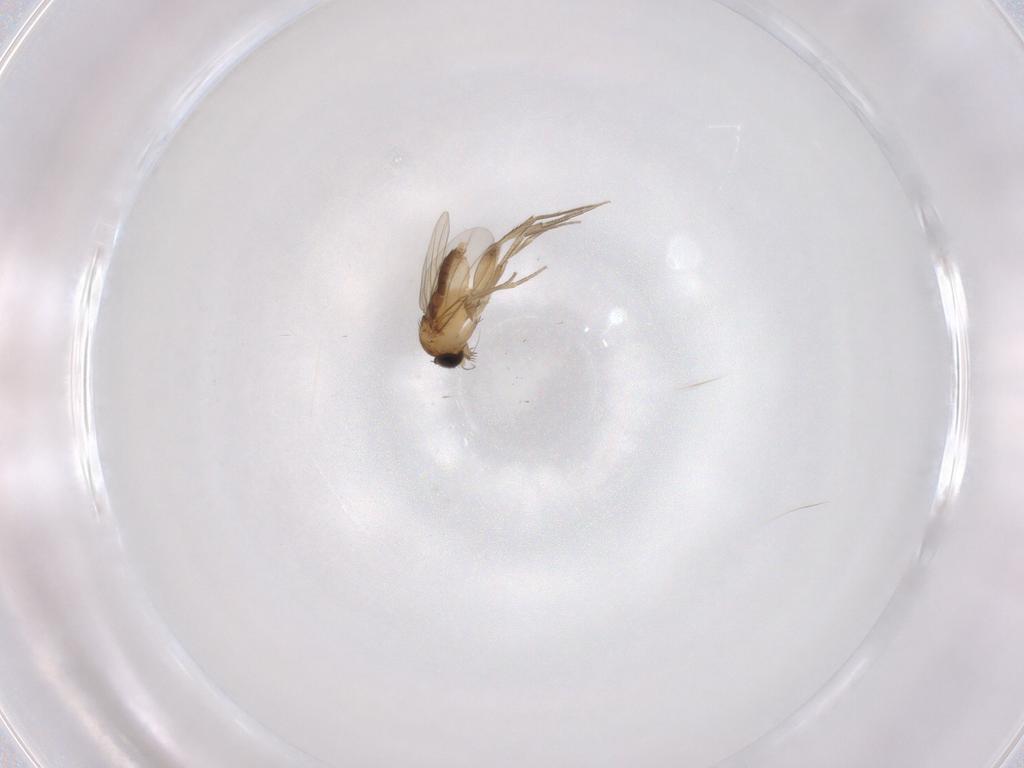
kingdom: Animalia
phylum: Arthropoda
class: Insecta
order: Diptera
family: Phoridae
